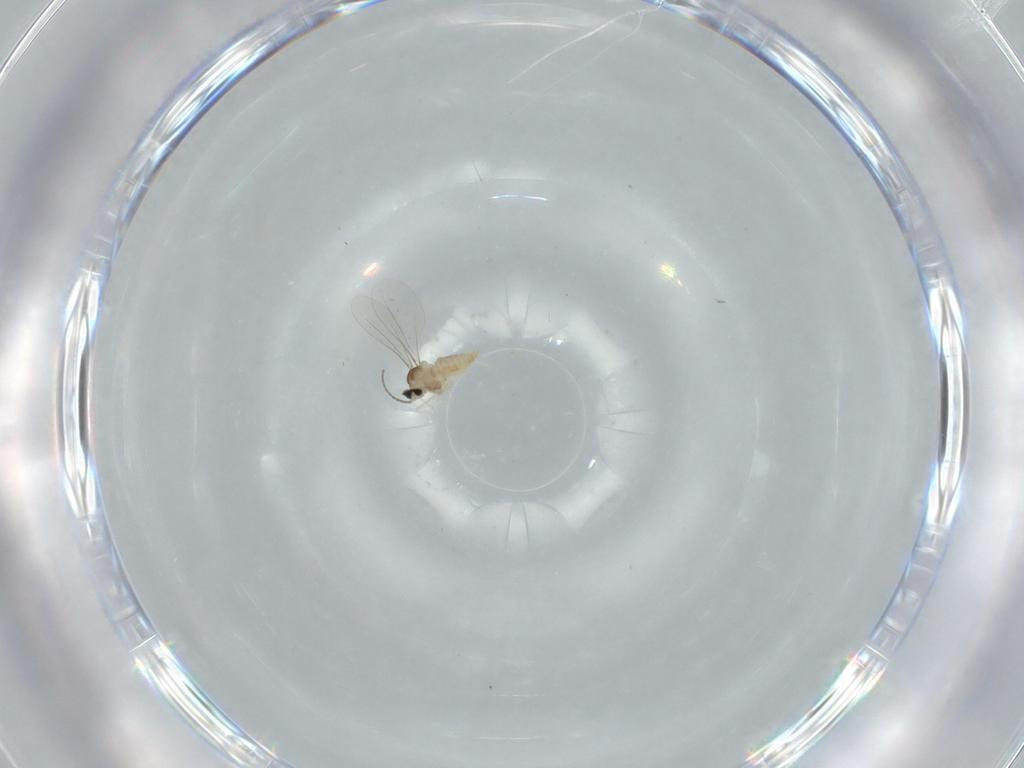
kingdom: Animalia
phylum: Arthropoda
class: Insecta
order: Diptera
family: Cecidomyiidae
